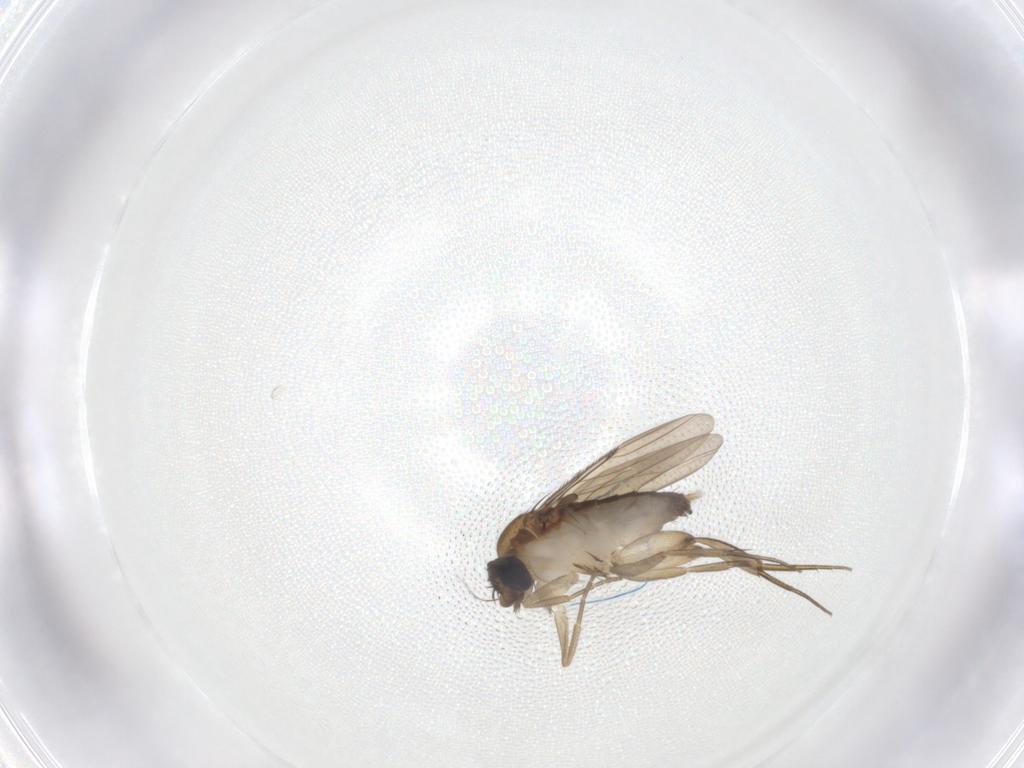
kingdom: Animalia
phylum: Arthropoda
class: Insecta
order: Diptera
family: Phoridae
